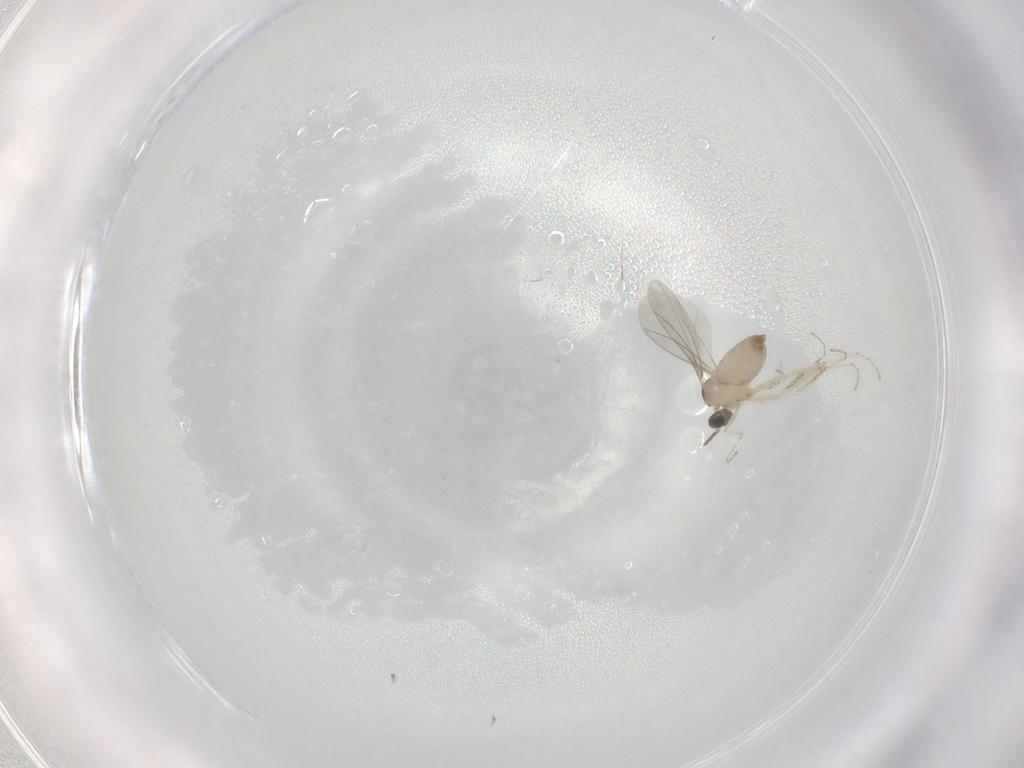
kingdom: Animalia
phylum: Arthropoda
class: Insecta
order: Diptera
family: Cecidomyiidae
